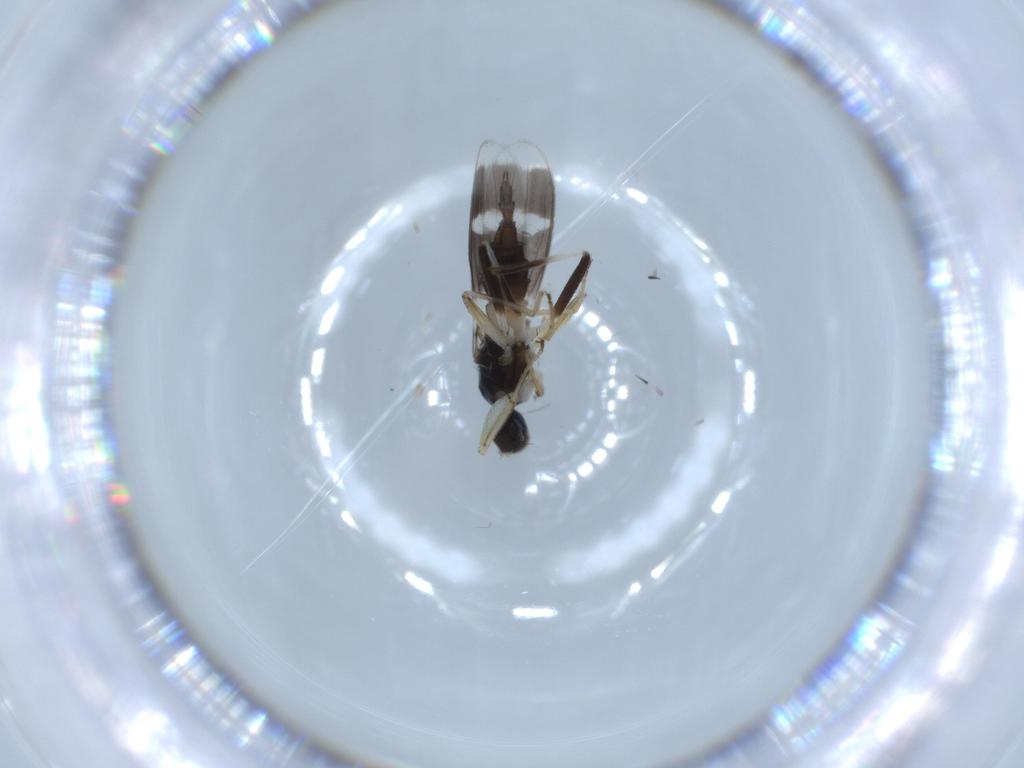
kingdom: Animalia
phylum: Arthropoda
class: Insecta
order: Diptera
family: Hybotidae
